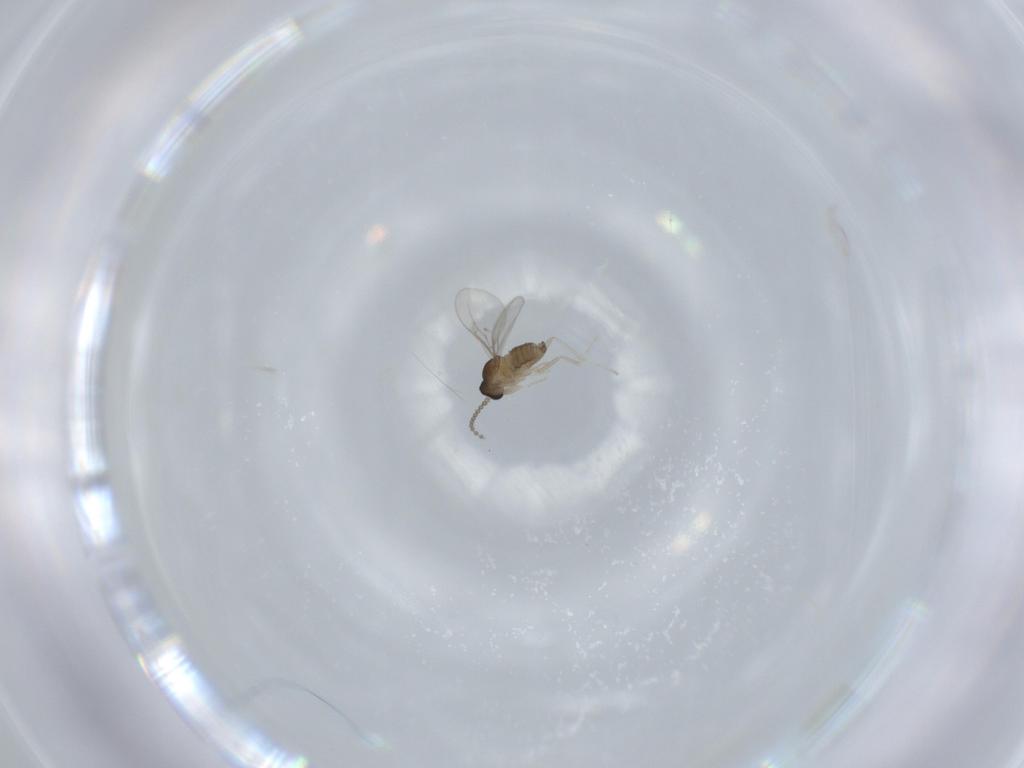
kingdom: Animalia
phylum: Arthropoda
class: Insecta
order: Diptera
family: Cecidomyiidae
